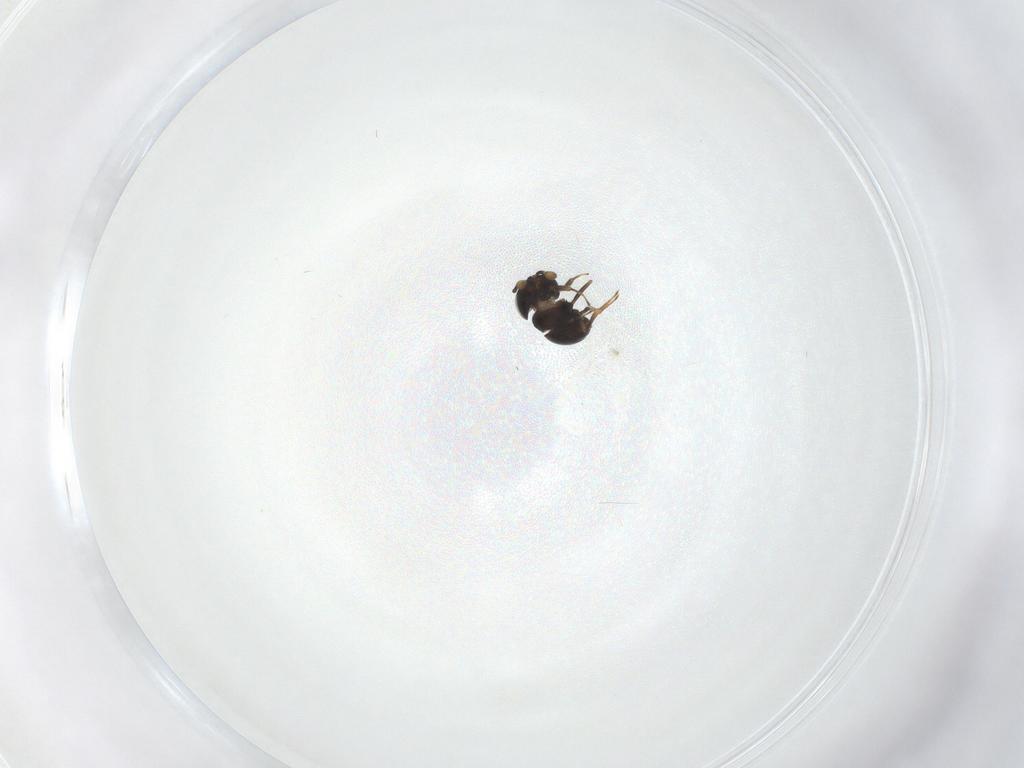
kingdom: Animalia
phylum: Arthropoda
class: Insecta
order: Hymenoptera
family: Scelionidae
